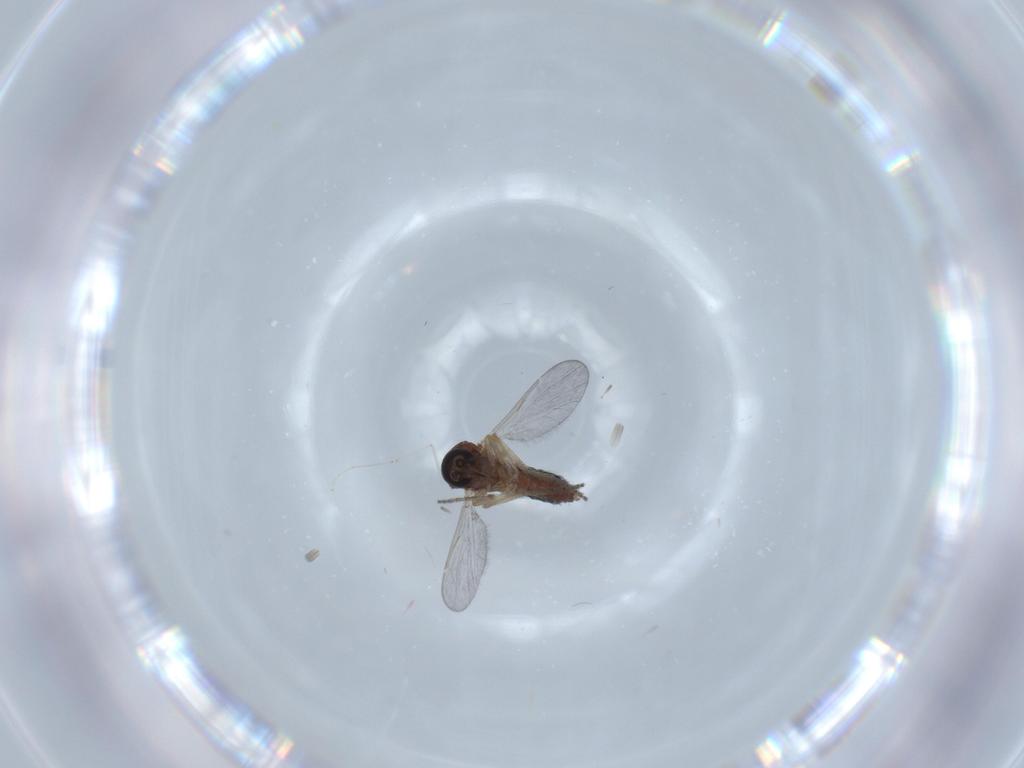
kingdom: Animalia
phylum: Arthropoda
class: Insecta
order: Diptera
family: Ceratopogonidae
